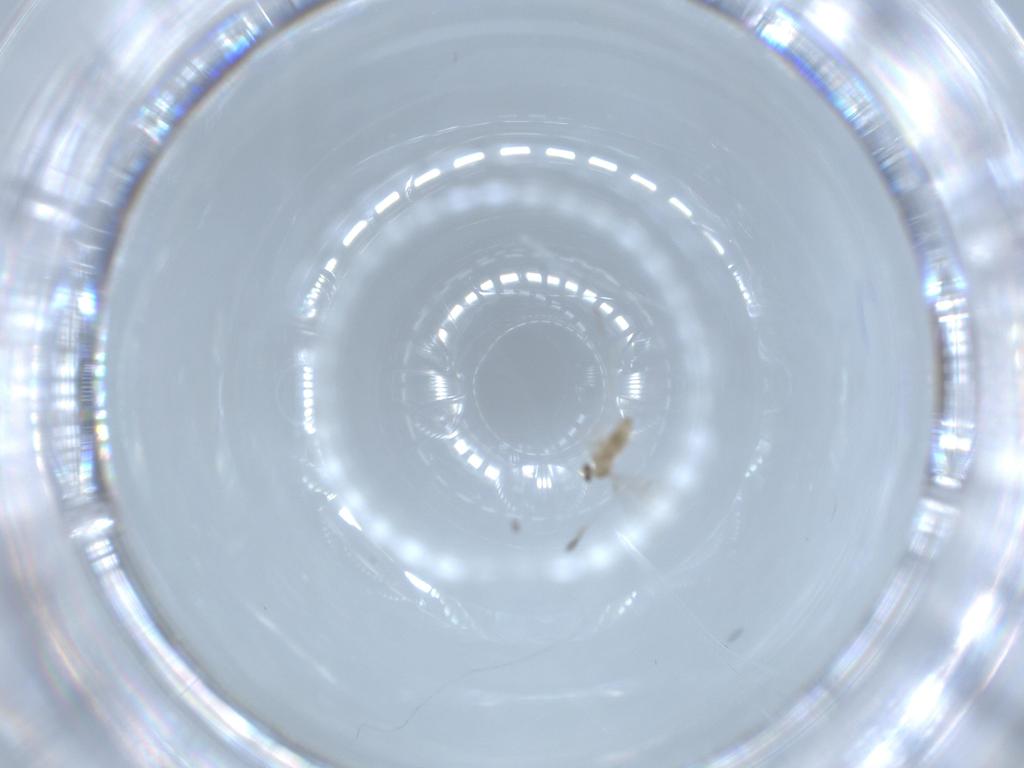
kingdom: Animalia
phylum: Arthropoda
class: Insecta
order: Diptera
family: Cecidomyiidae
